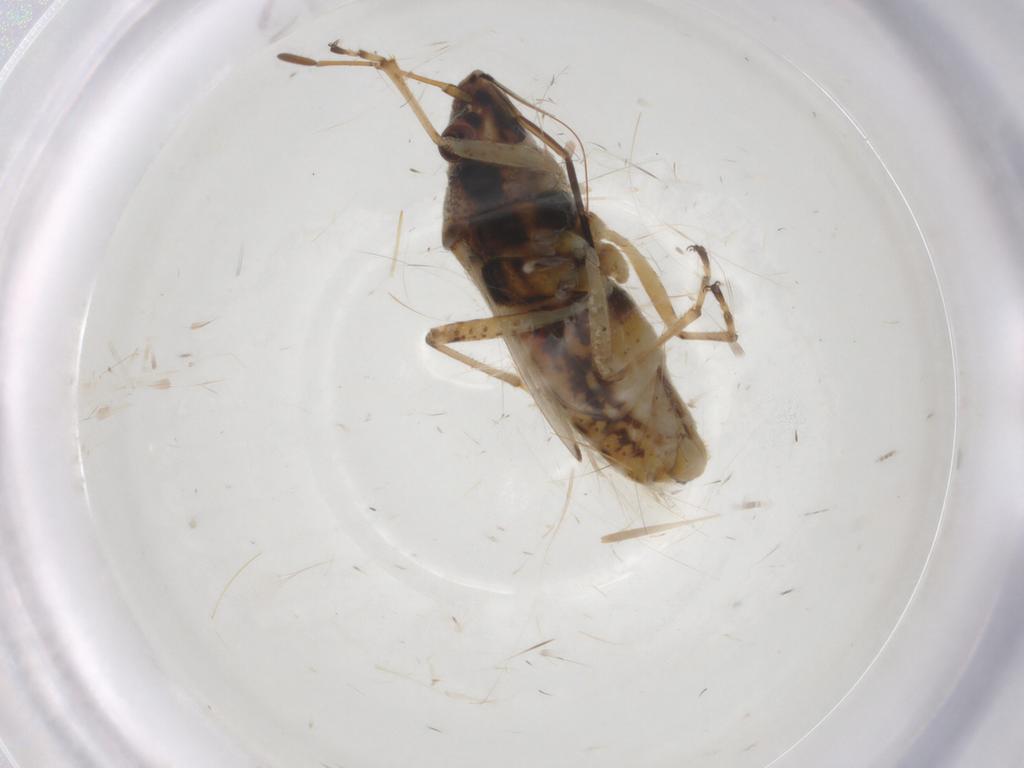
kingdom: Animalia
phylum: Arthropoda
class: Insecta
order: Hemiptera
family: Lygaeidae
